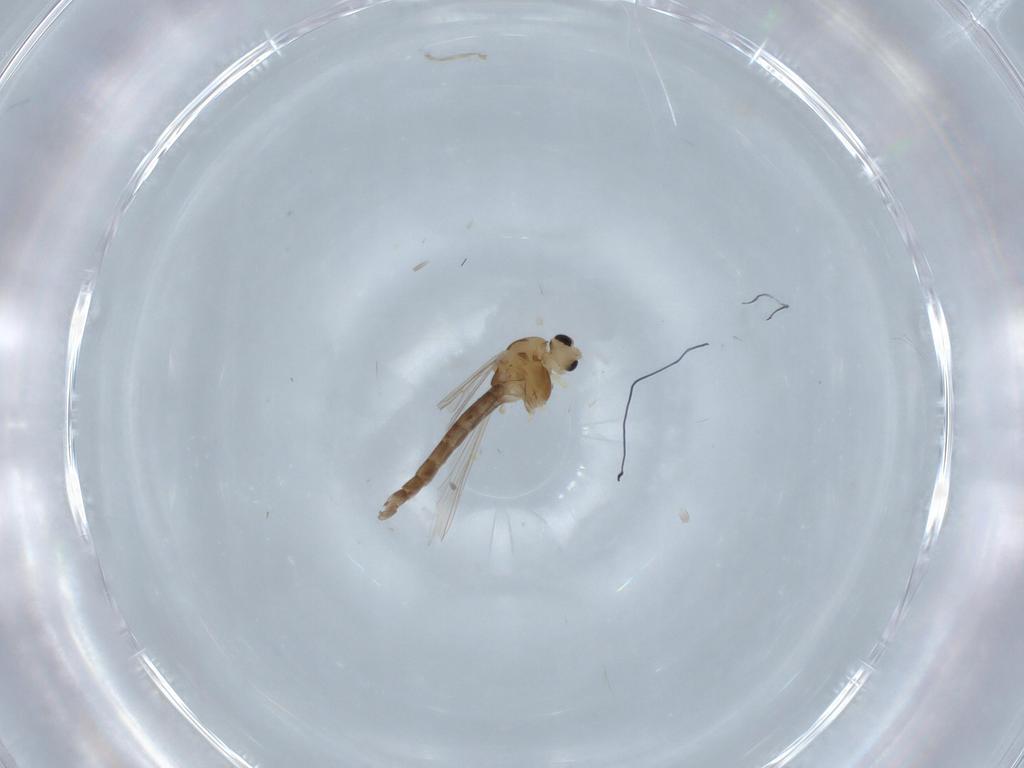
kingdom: Animalia
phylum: Arthropoda
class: Insecta
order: Diptera
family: Chironomidae
